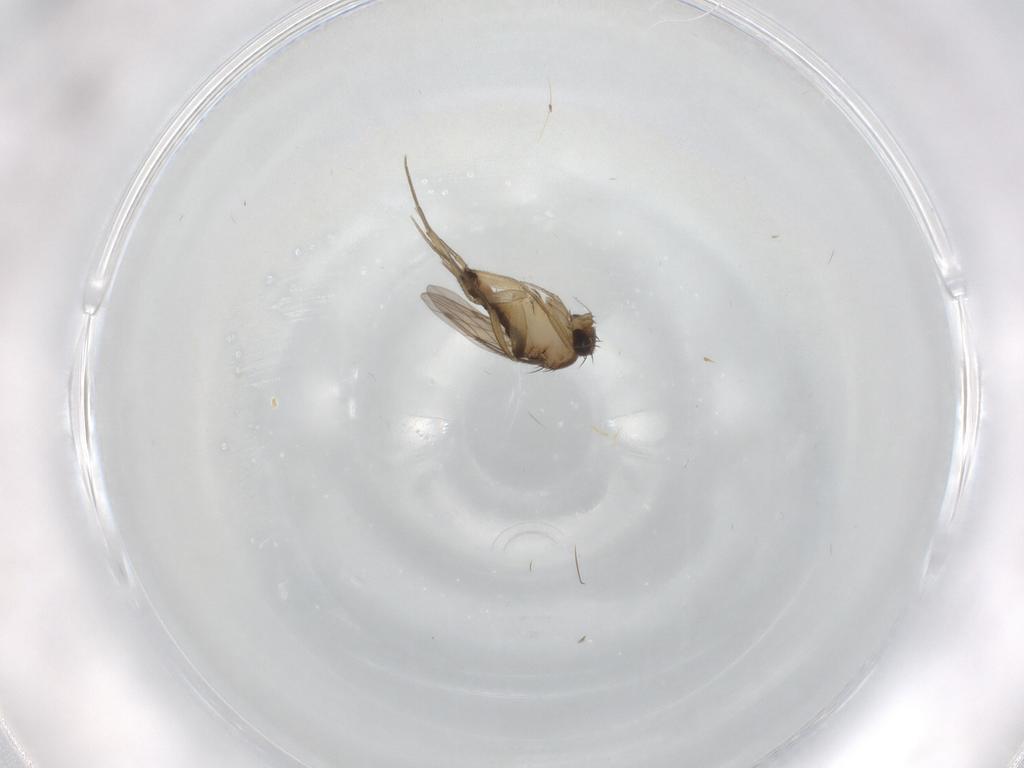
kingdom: Animalia
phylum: Arthropoda
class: Insecta
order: Diptera
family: Phoridae
